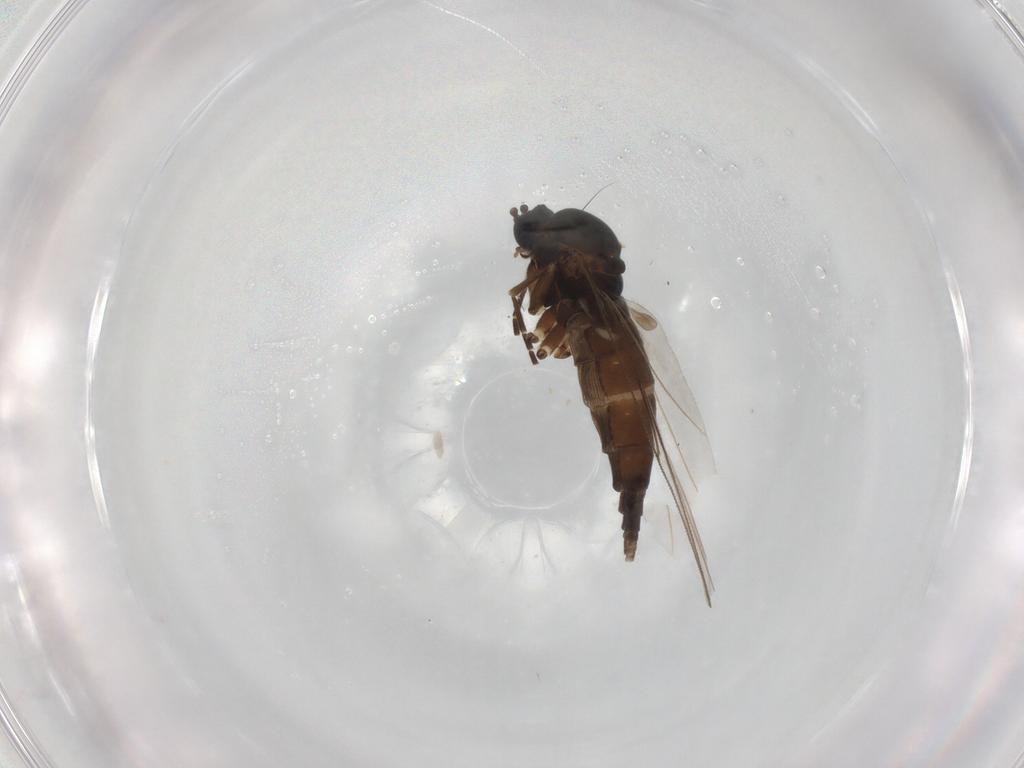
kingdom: Animalia
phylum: Arthropoda
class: Insecta
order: Diptera
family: Sciaridae
